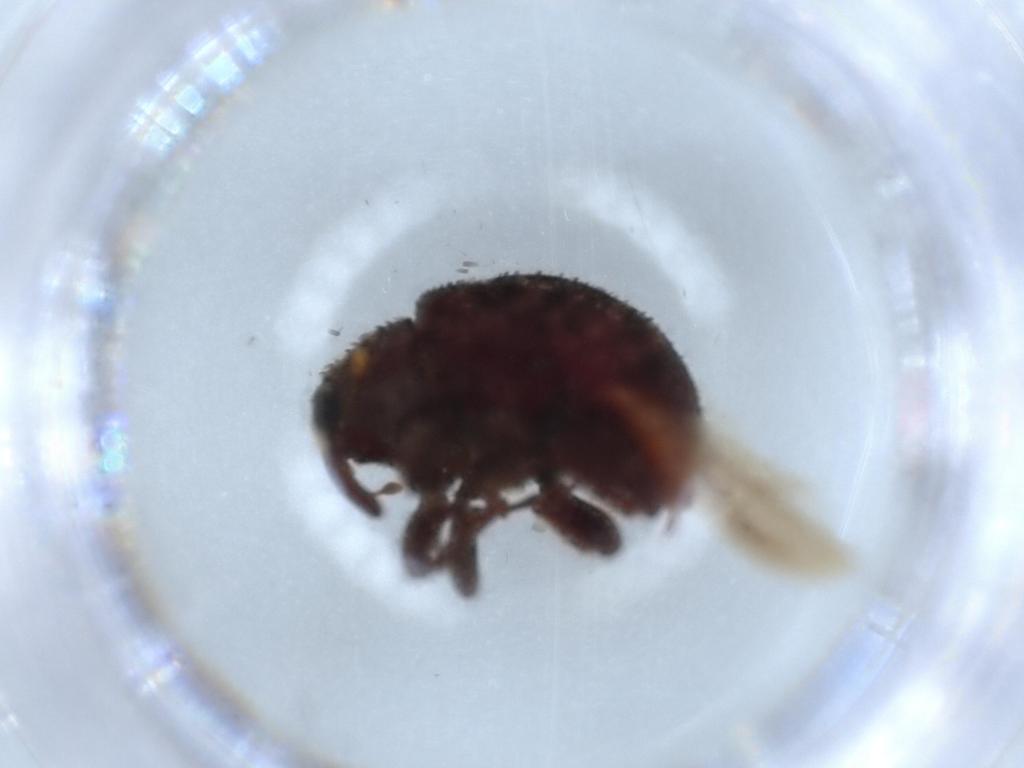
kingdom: Animalia
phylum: Arthropoda
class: Insecta
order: Coleoptera
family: Curculionidae
